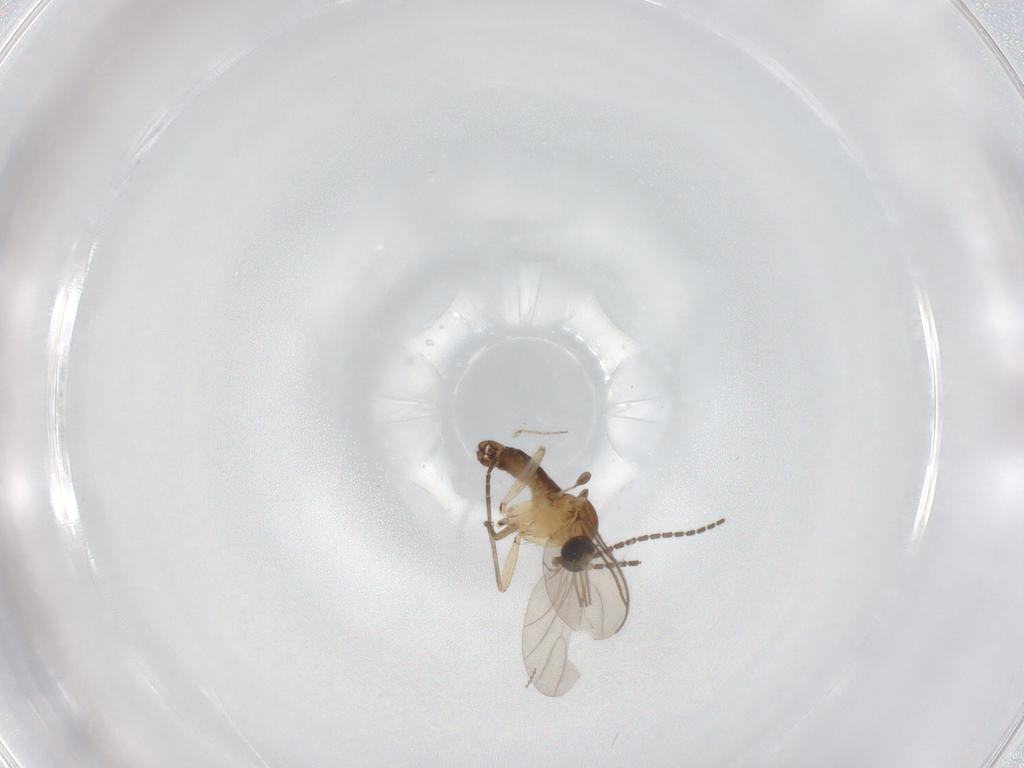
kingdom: Animalia
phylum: Arthropoda
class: Insecta
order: Diptera
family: Sciaridae
